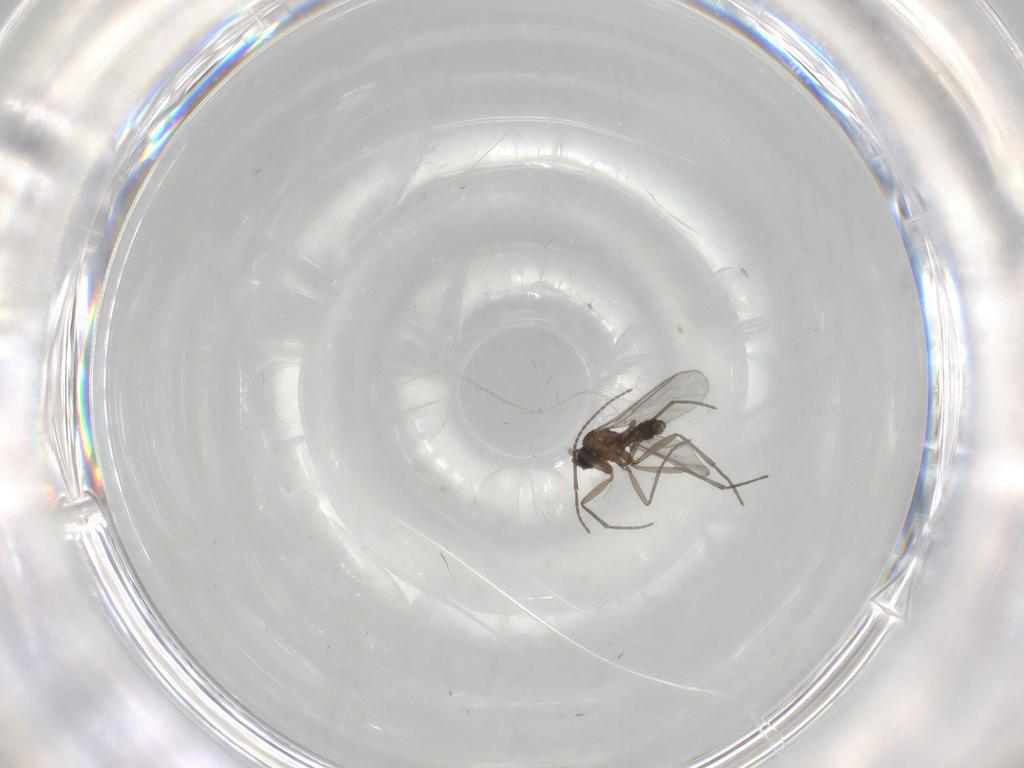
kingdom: Animalia
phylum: Arthropoda
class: Insecta
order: Diptera
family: Sciaridae
